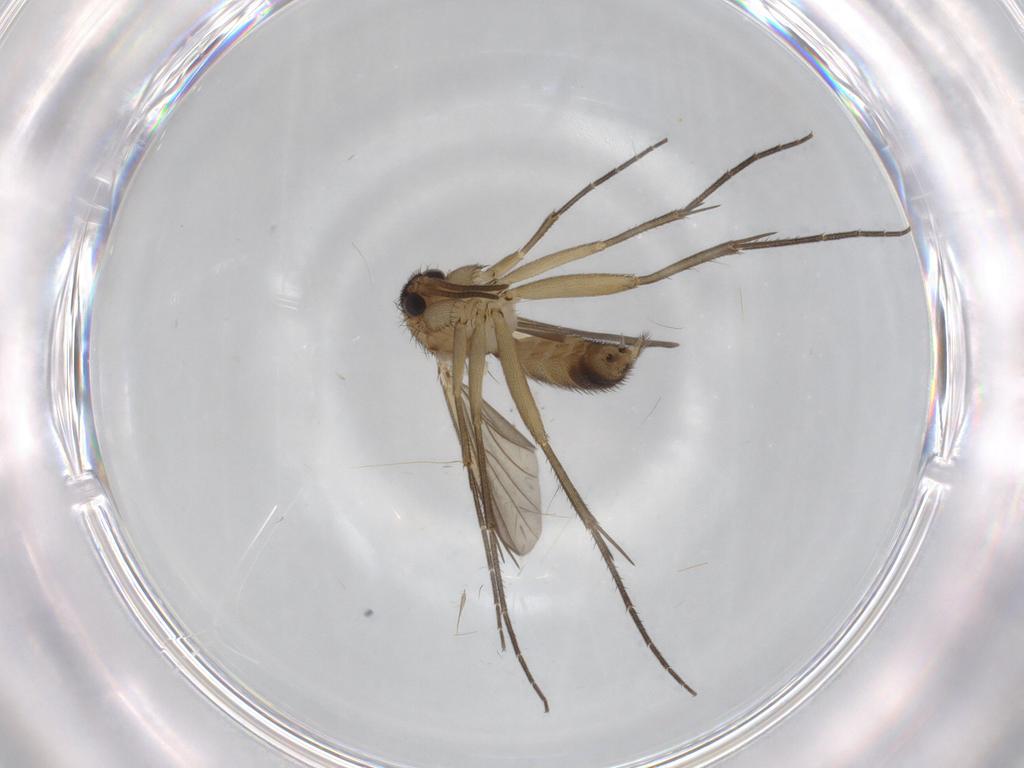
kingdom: Animalia
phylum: Arthropoda
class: Insecta
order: Diptera
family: Mycetophilidae
